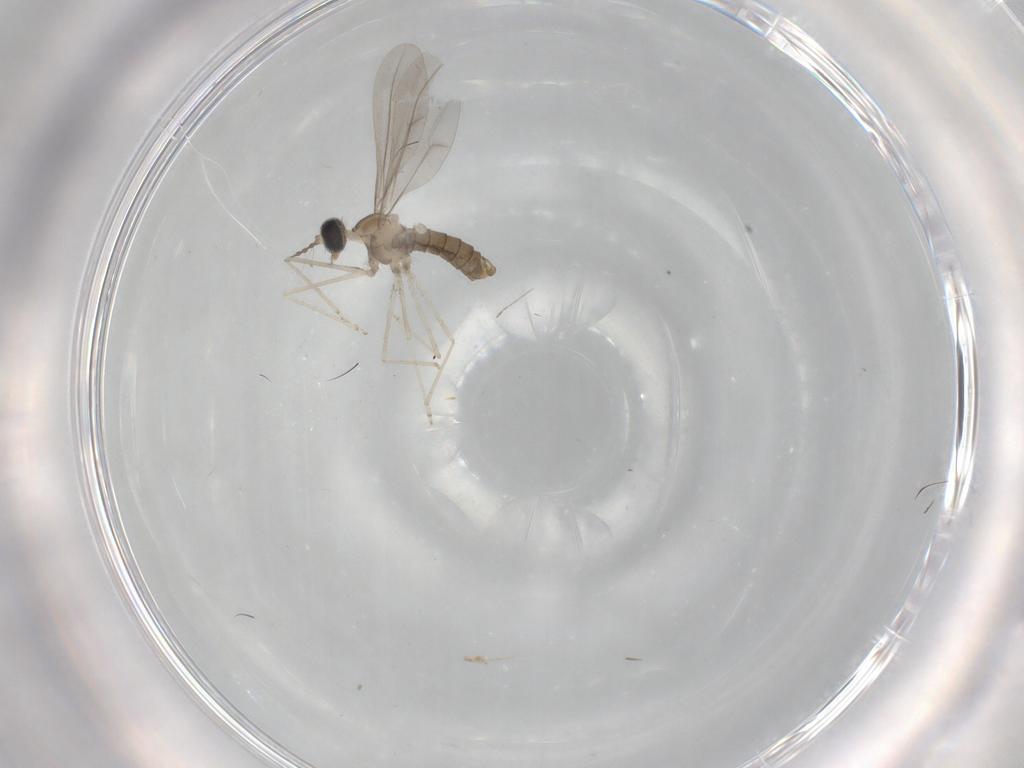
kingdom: Animalia
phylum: Arthropoda
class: Insecta
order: Diptera
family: Cecidomyiidae
